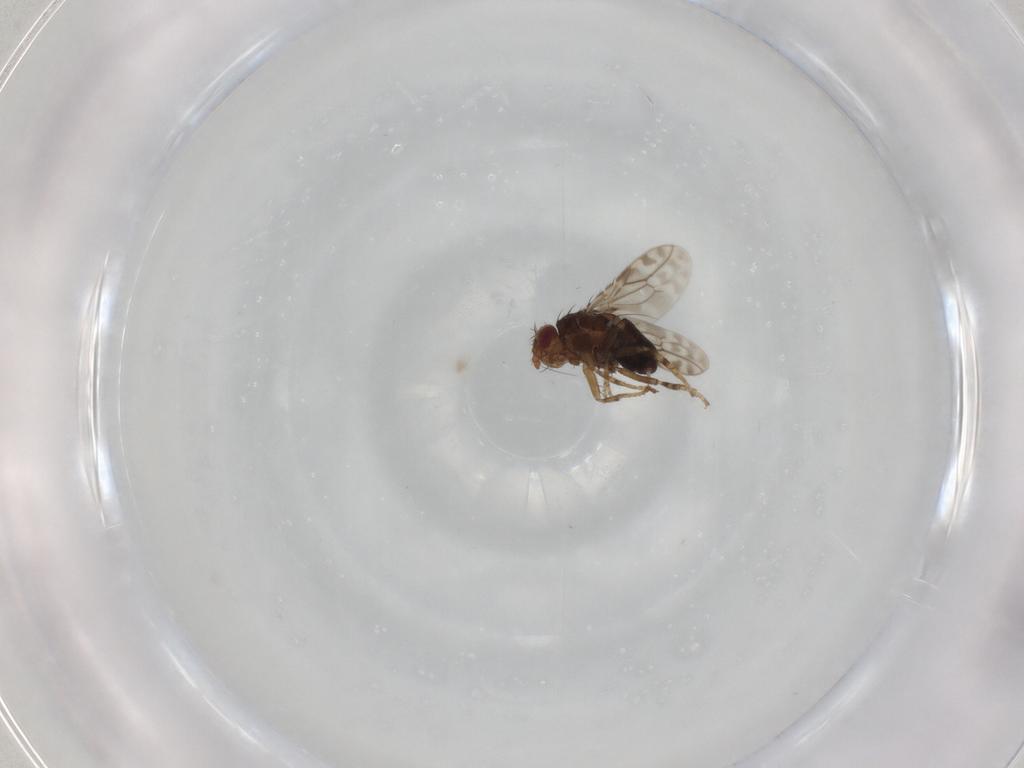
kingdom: Animalia
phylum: Arthropoda
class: Insecta
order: Diptera
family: Sphaeroceridae
